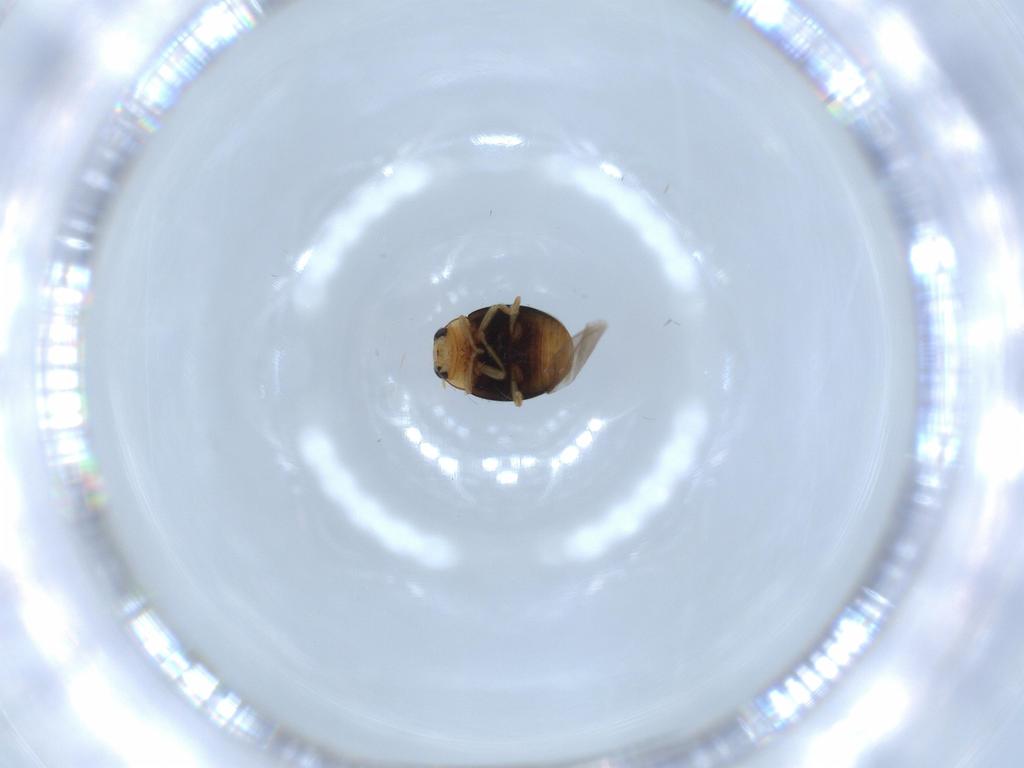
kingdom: Animalia
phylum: Arthropoda
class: Insecta
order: Coleoptera
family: Coccinellidae
